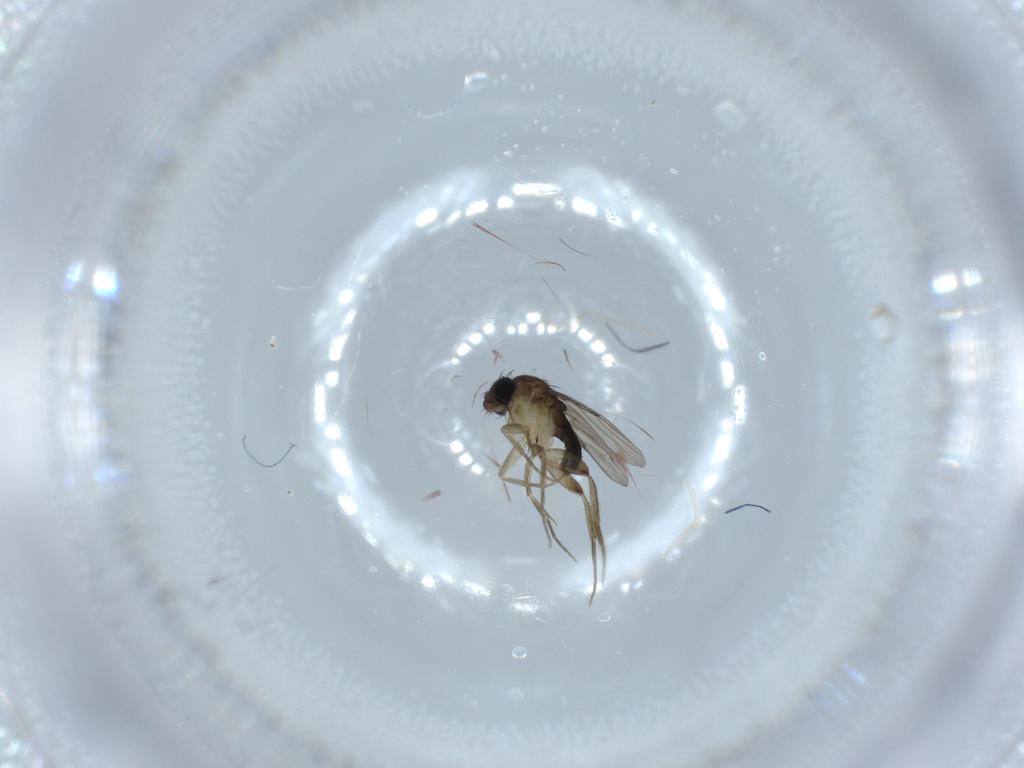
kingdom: Animalia
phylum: Arthropoda
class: Insecta
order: Diptera
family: Phoridae
